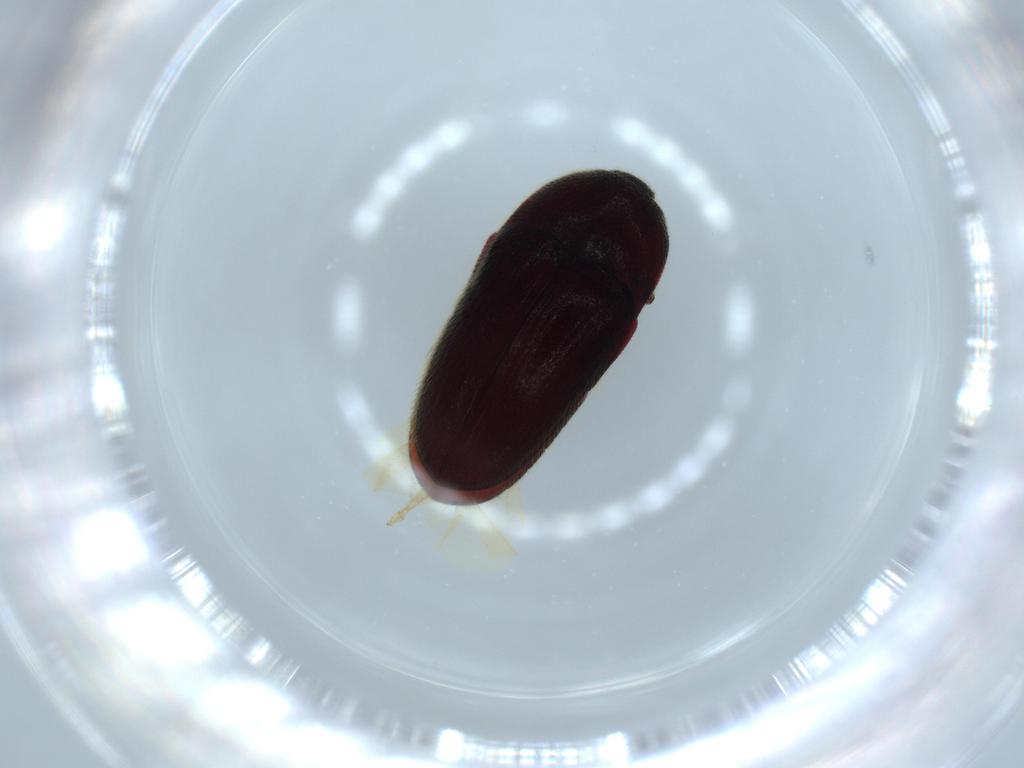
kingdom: Animalia
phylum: Arthropoda
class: Insecta
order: Coleoptera
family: Throscidae
